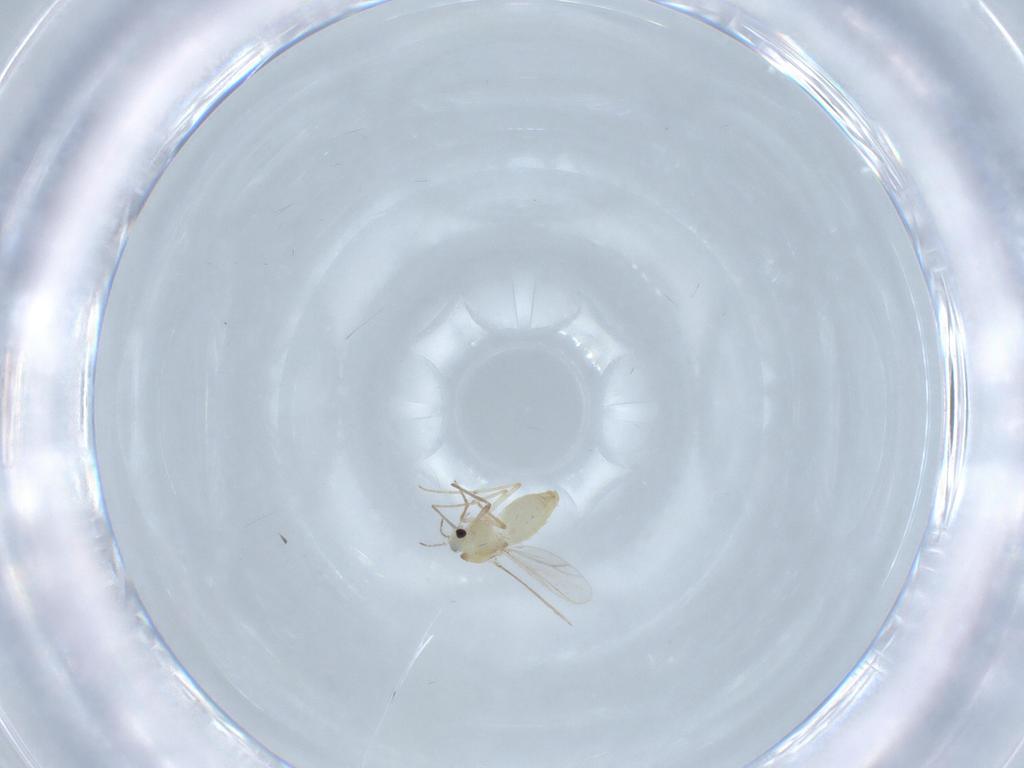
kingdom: Animalia
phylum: Arthropoda
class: Insecta
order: Diptera
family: Chironomidae
